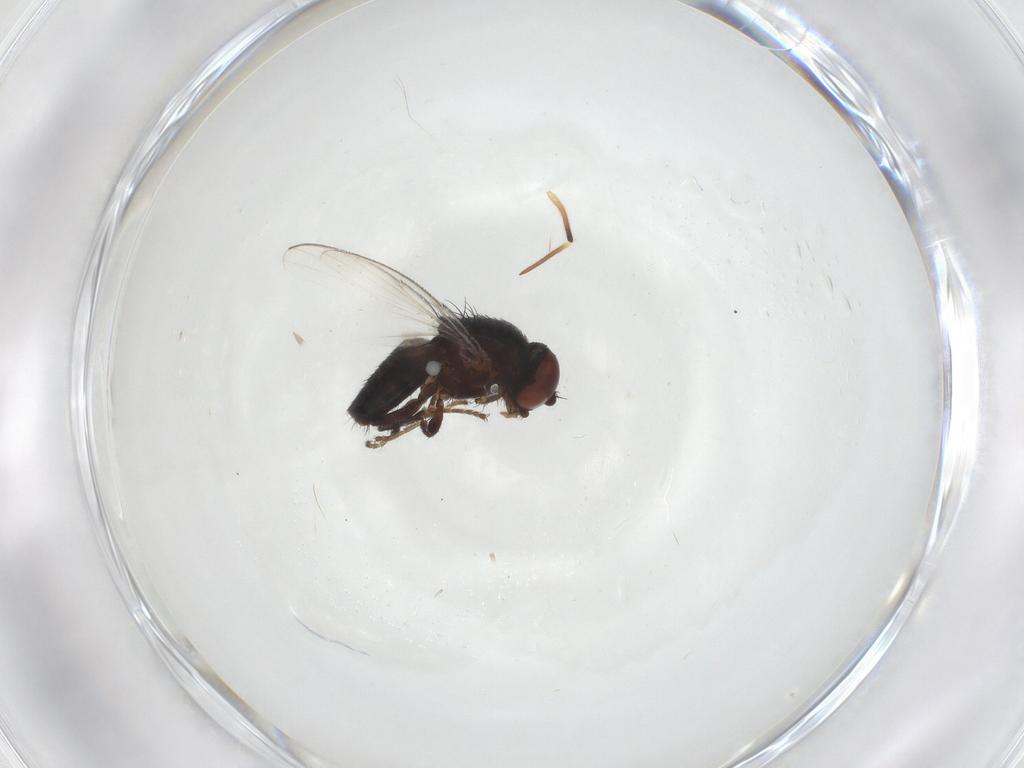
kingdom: Animalia
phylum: Arthropoda
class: Insecta
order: Diptera
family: Milichiidae
